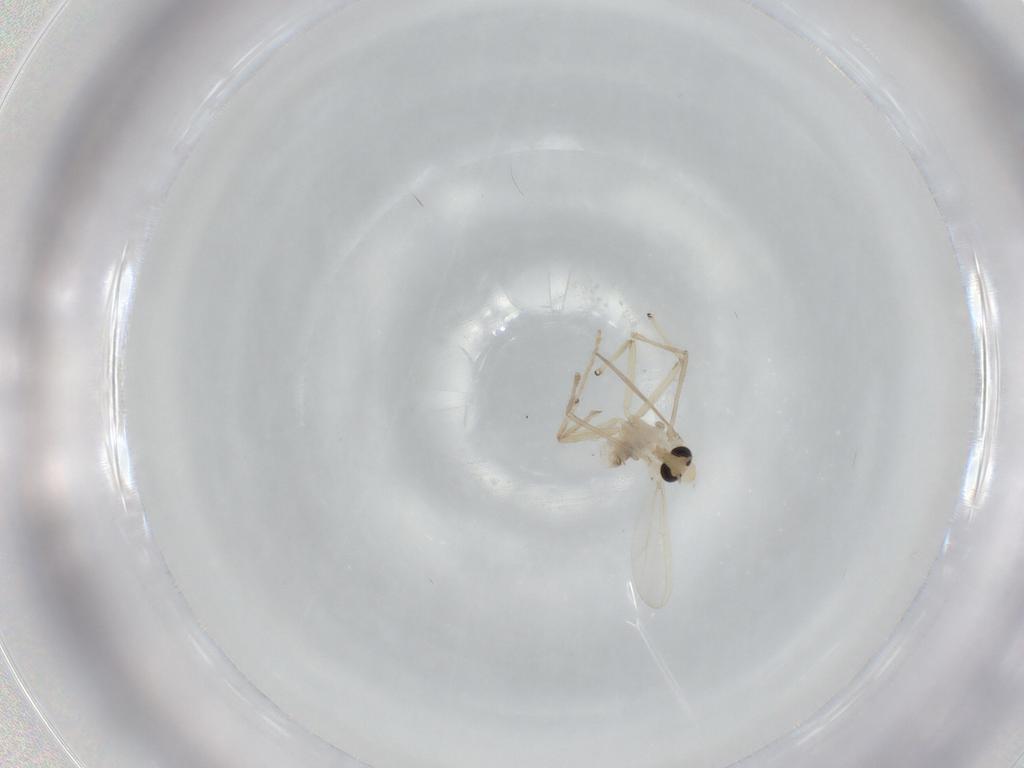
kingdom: Animalia
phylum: Arthropoda
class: Insecta
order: Diptera
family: Chironomidae
